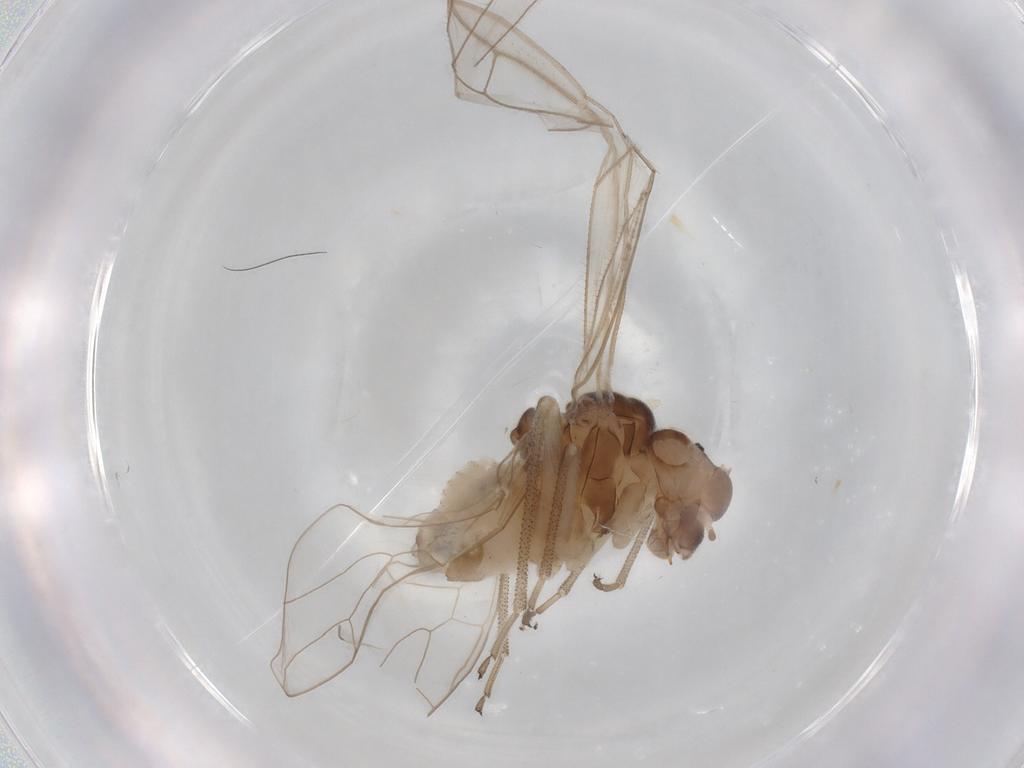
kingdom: Animalia
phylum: Arthropoda
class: Insecta
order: Psocodea
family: Stenopsocidae
